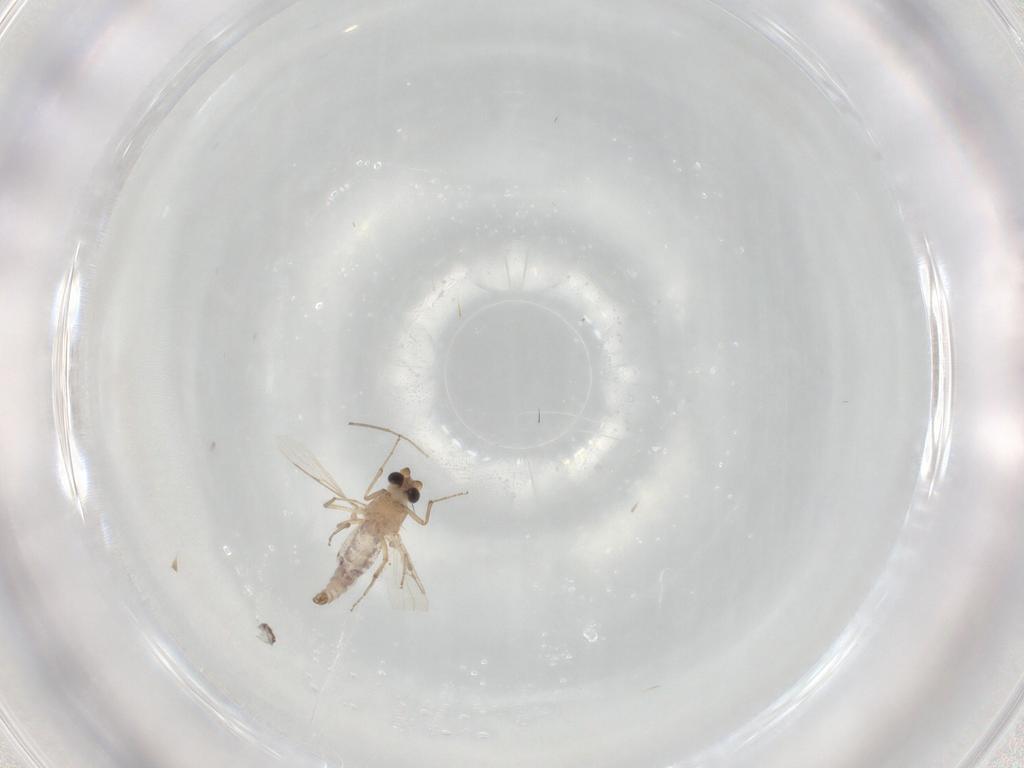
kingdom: Animalia
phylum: Arthropoda
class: Insecta
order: Diptera
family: Chironomidae
